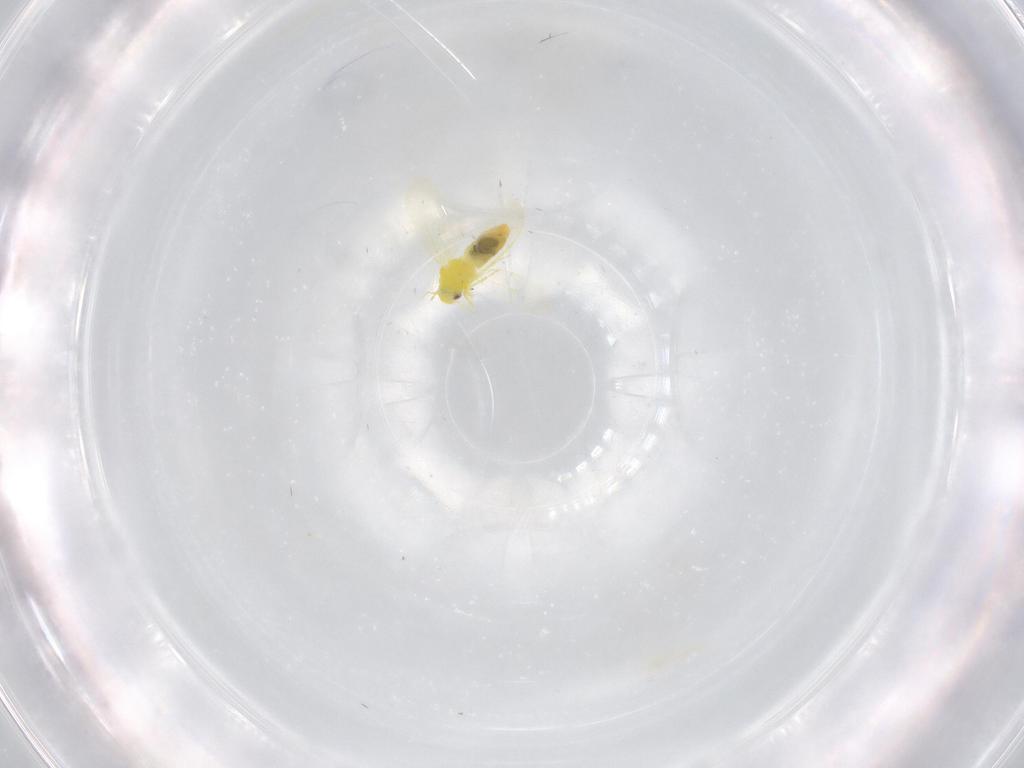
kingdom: Animalia
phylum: Arthropoda
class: Insecta
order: Hemiptera
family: Aleyrodidae
